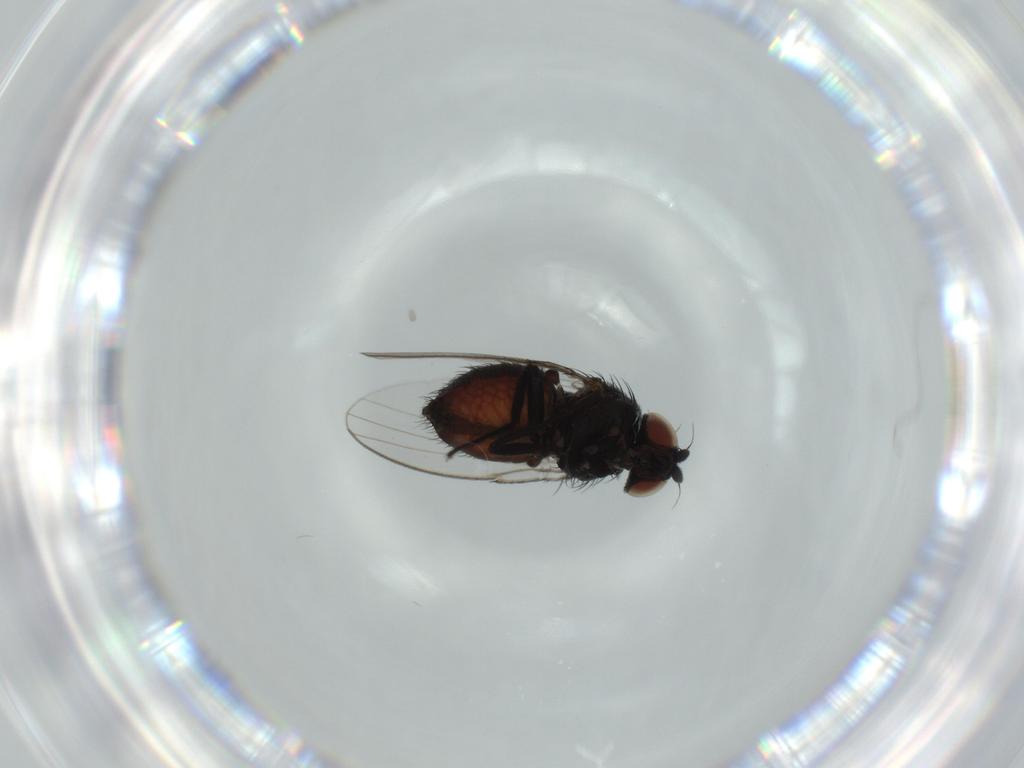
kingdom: Animalia
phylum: Arthropoda
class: Insecta
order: Diptera
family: Milichiidae
